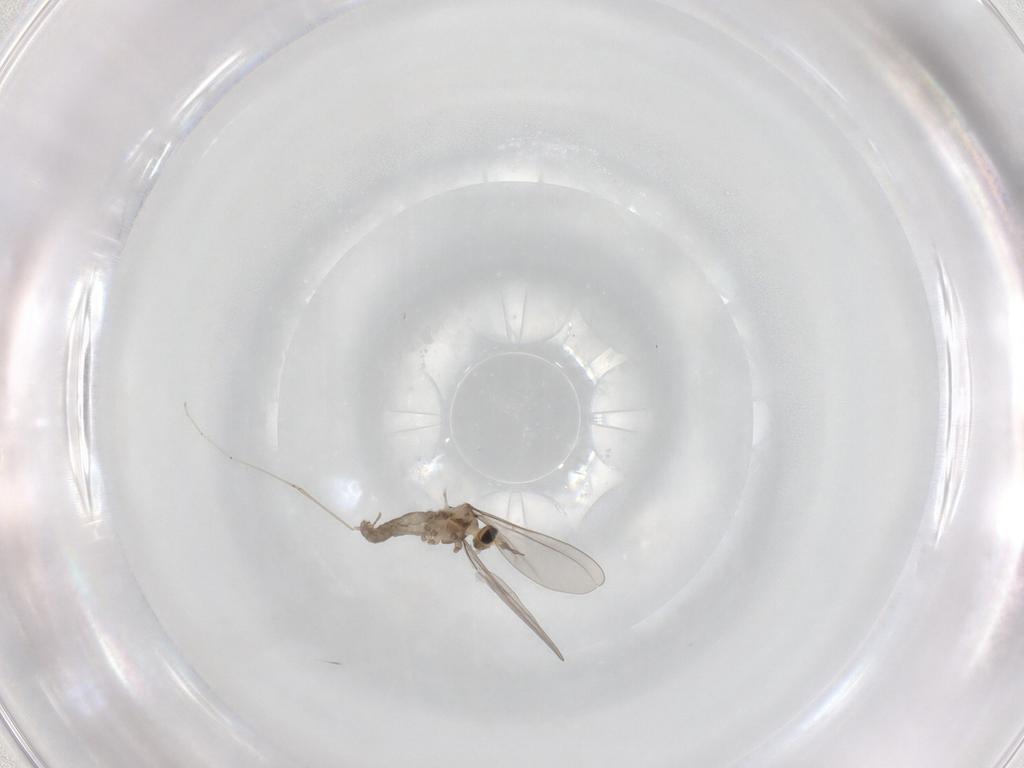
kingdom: Animalia
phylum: Arthropoda
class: Insecta
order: Diptera
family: Cecidomyiidae
